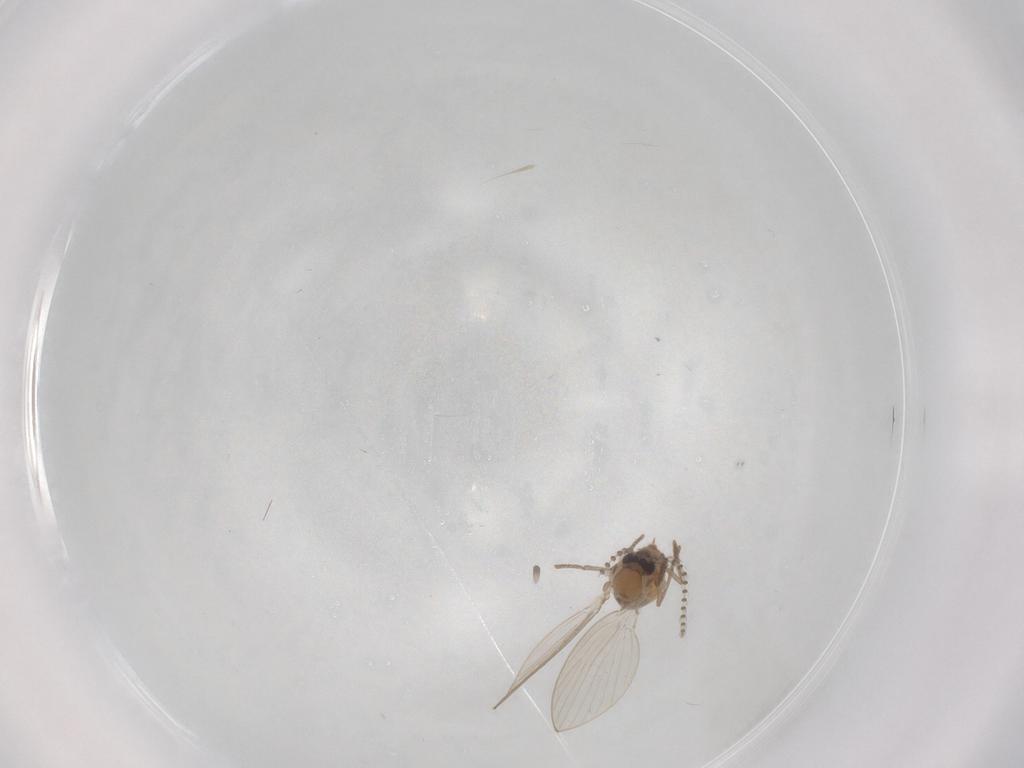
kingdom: Animalia
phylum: Arthropoda
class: Insecta
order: Diptera
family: Psychodidae
